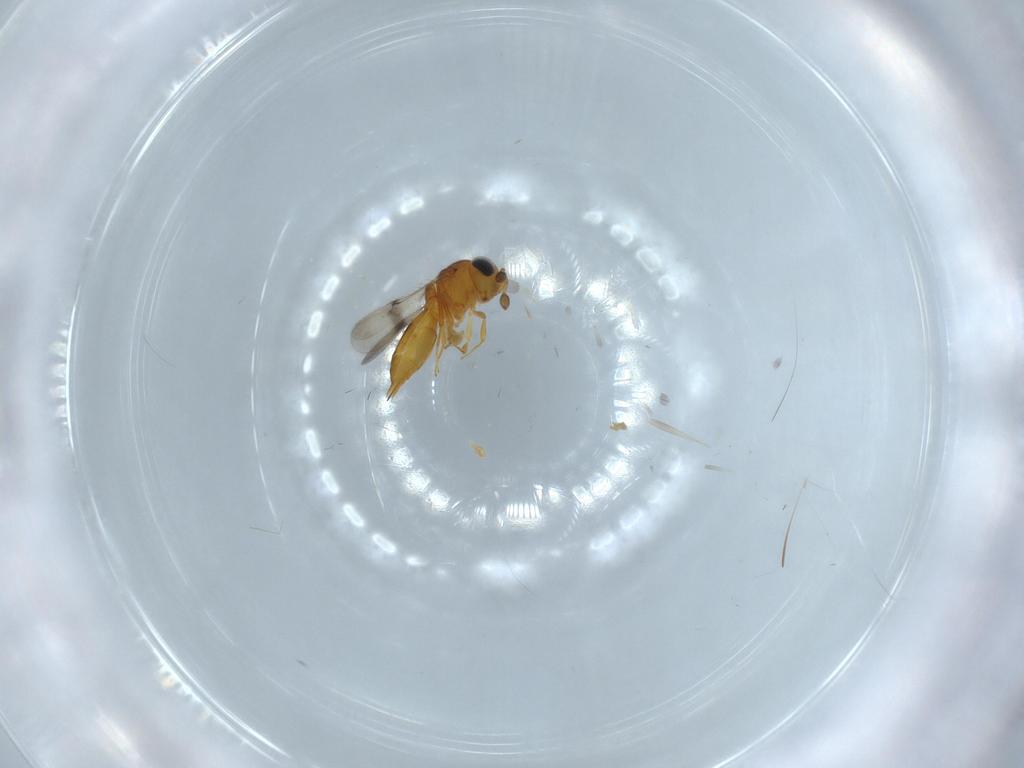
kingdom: Animalia
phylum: Arthropoda
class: Insecta
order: Hymenoptera
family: Scelionidae
